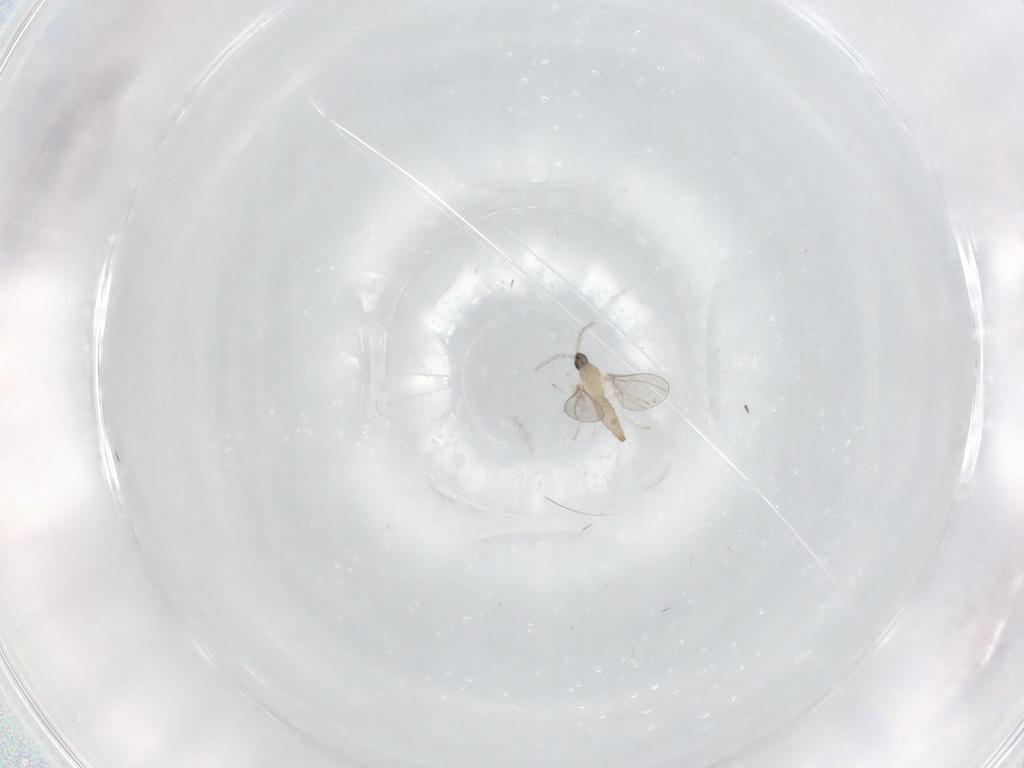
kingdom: Animalia
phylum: Arthropoda
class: Insecta
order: Diptera
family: Cecidomyiidae
